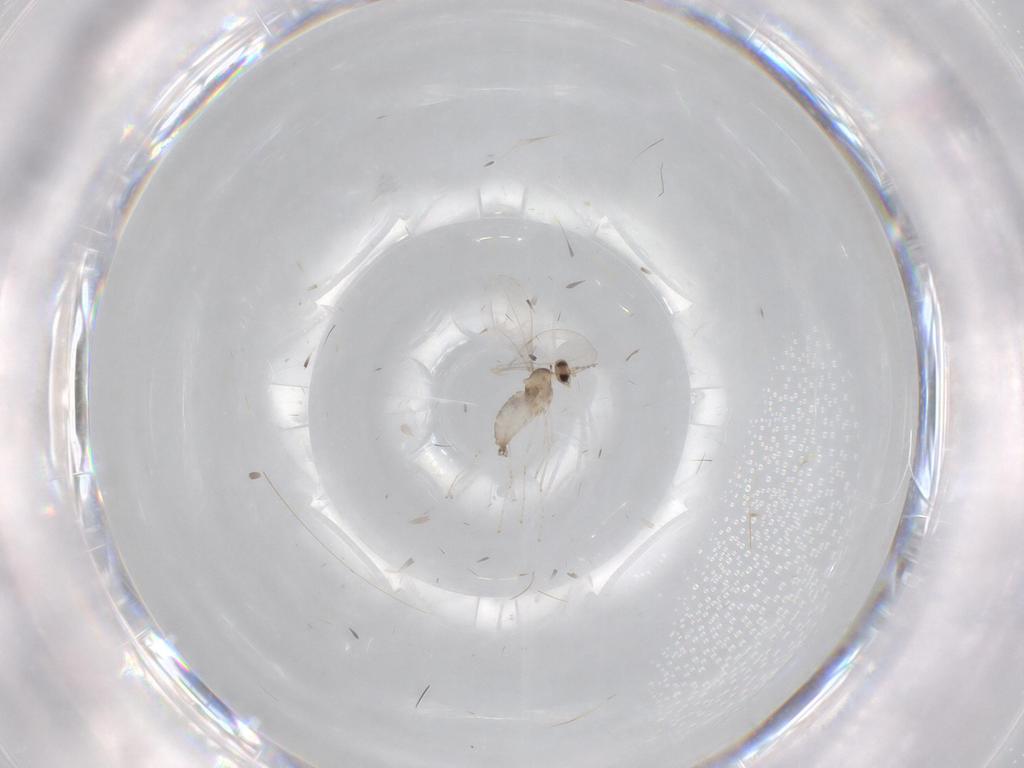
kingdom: Animalia
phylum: Arthropoda
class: Insecta
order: Diptera
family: Cecidomyiidae
